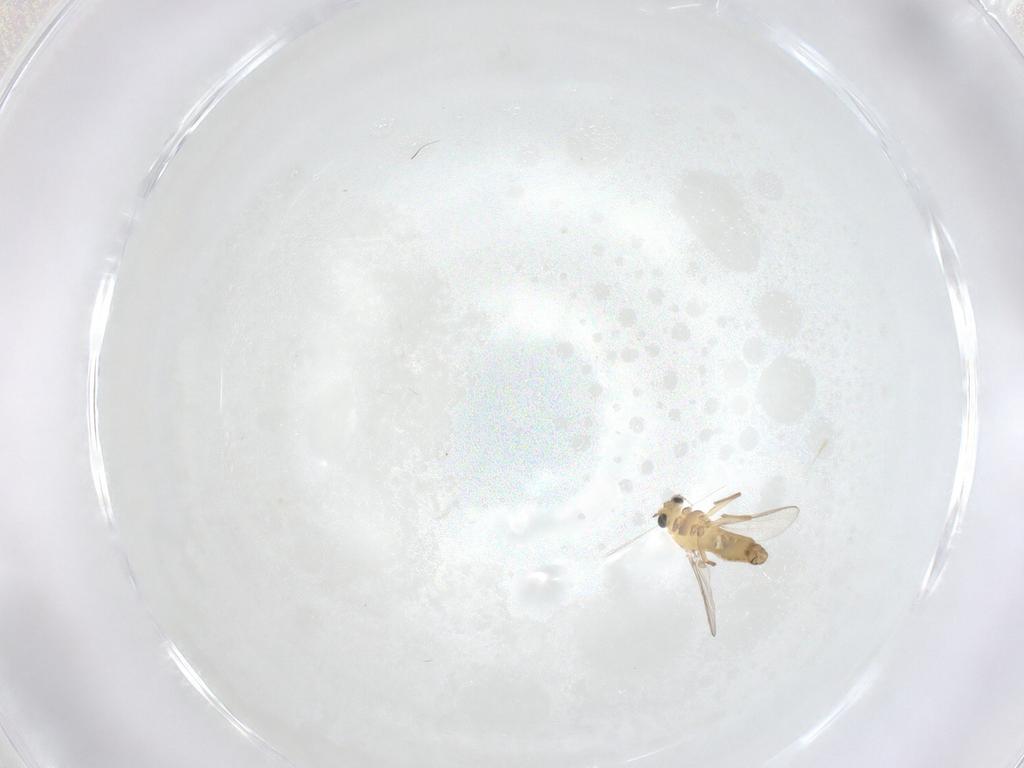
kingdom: Animalia
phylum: Arthropoda
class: Insecta
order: Diptera
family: Chironomidae
